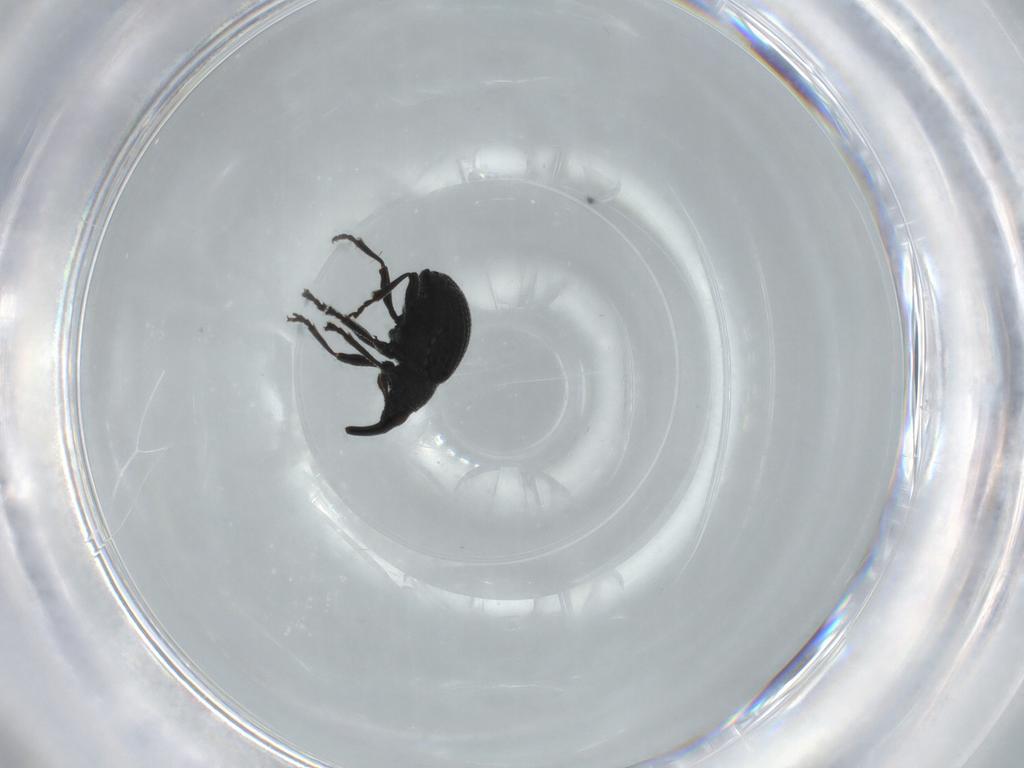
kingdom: Animalia
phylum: Arthropoda
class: Insecta
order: Coleoptera
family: Brentidae
